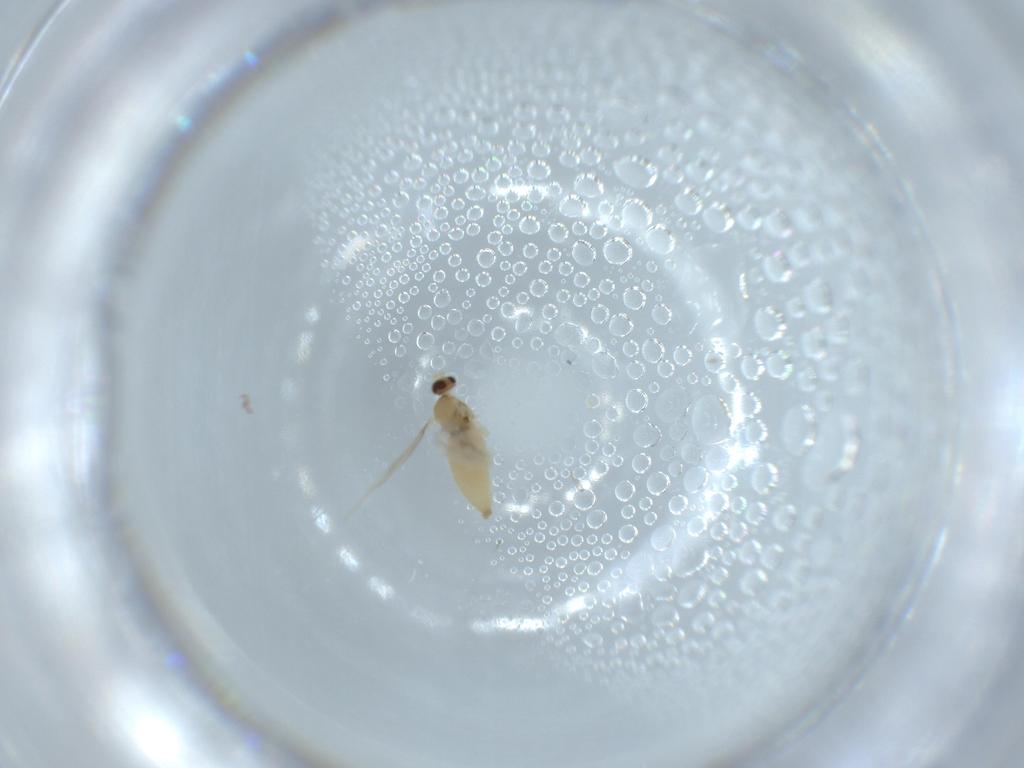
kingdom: Animalia
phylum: Arthropoda
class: Insecta
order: Diptera
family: Cecidomyiidae
